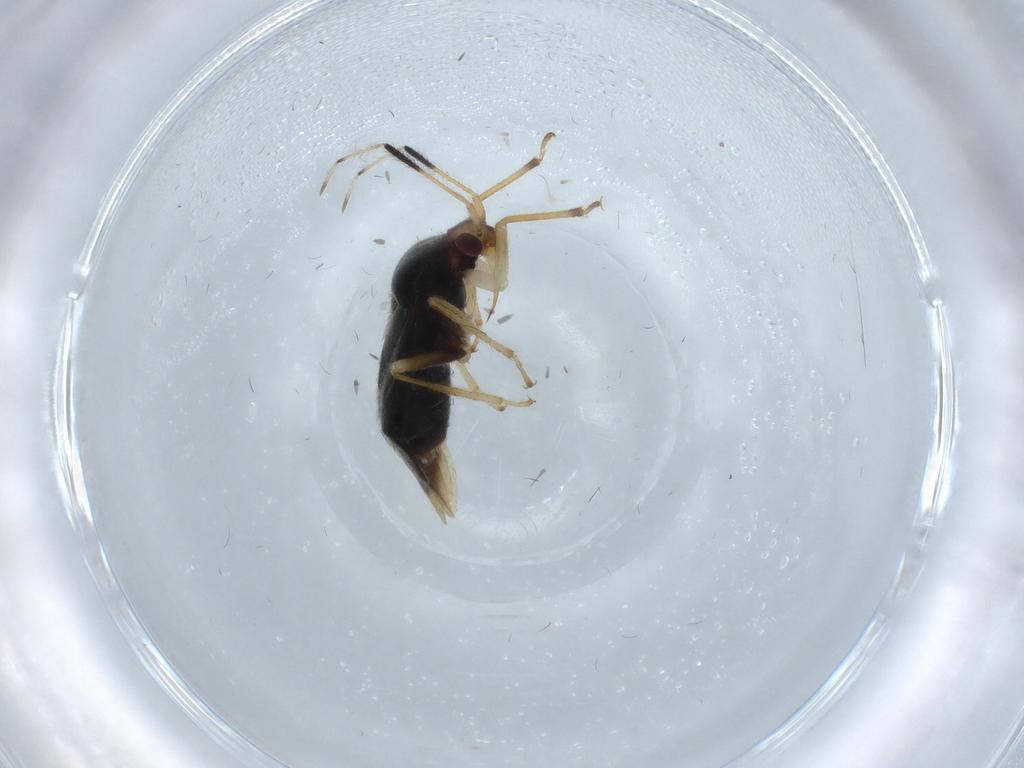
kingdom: Animalia
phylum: Arthropoda
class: Insecta
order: Hemiptera
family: Miridae
